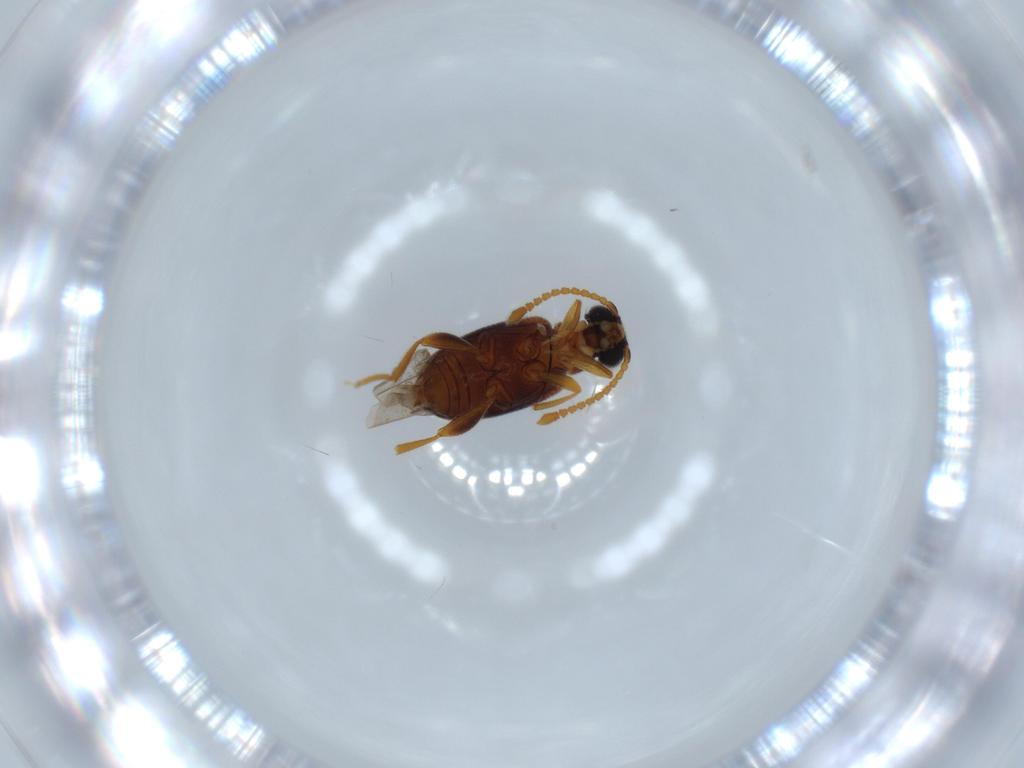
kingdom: Animalia
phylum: Arthropoda
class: Insecta
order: Coleoptera
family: Aderidae
